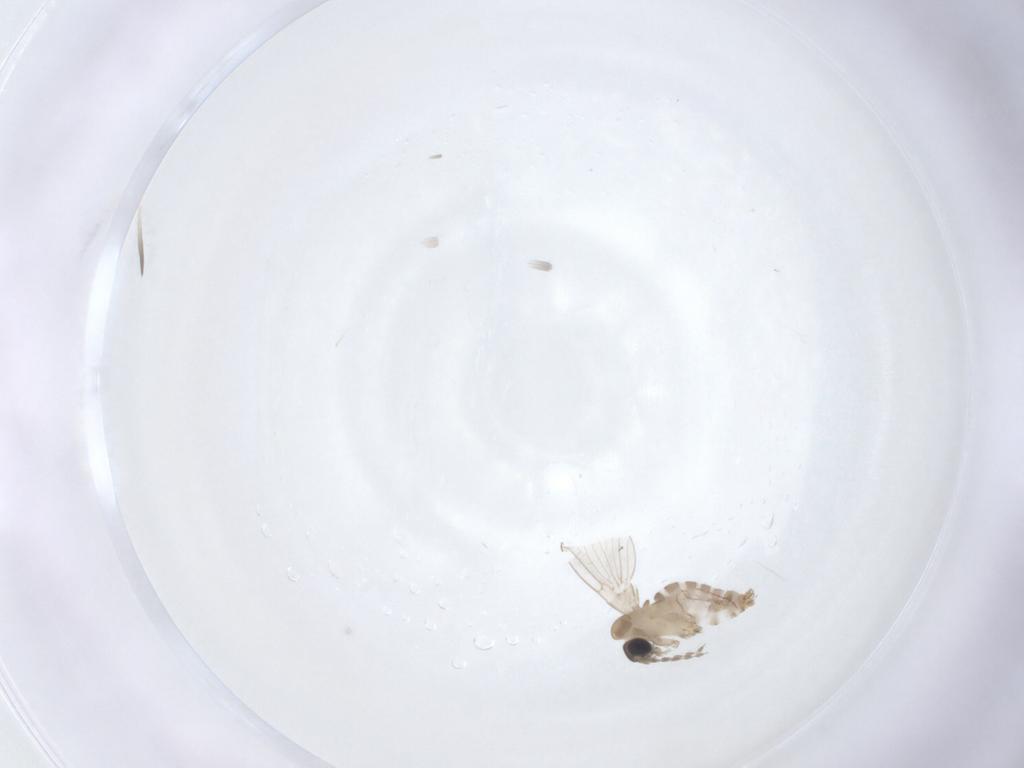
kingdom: Animalia
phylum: Arthropoda
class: Insecta
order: Diptera
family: Psychodidae
